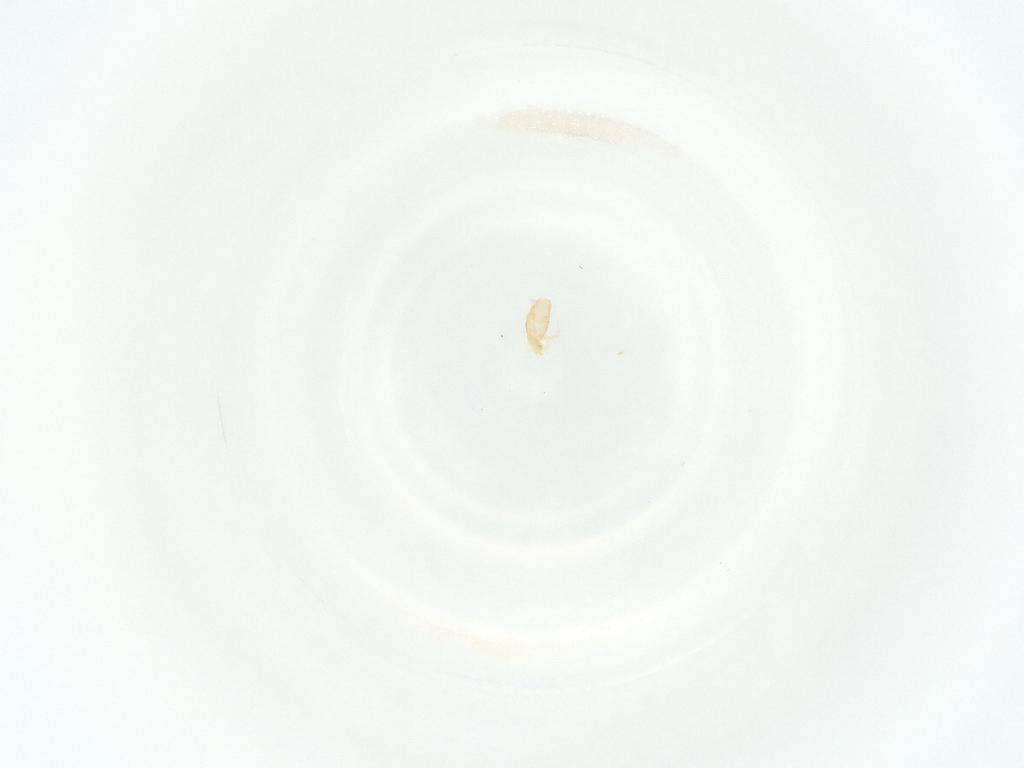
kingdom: Animalia
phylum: Arthropoda
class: Arachnida
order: Mesostigmata
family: Phytoseiidae
